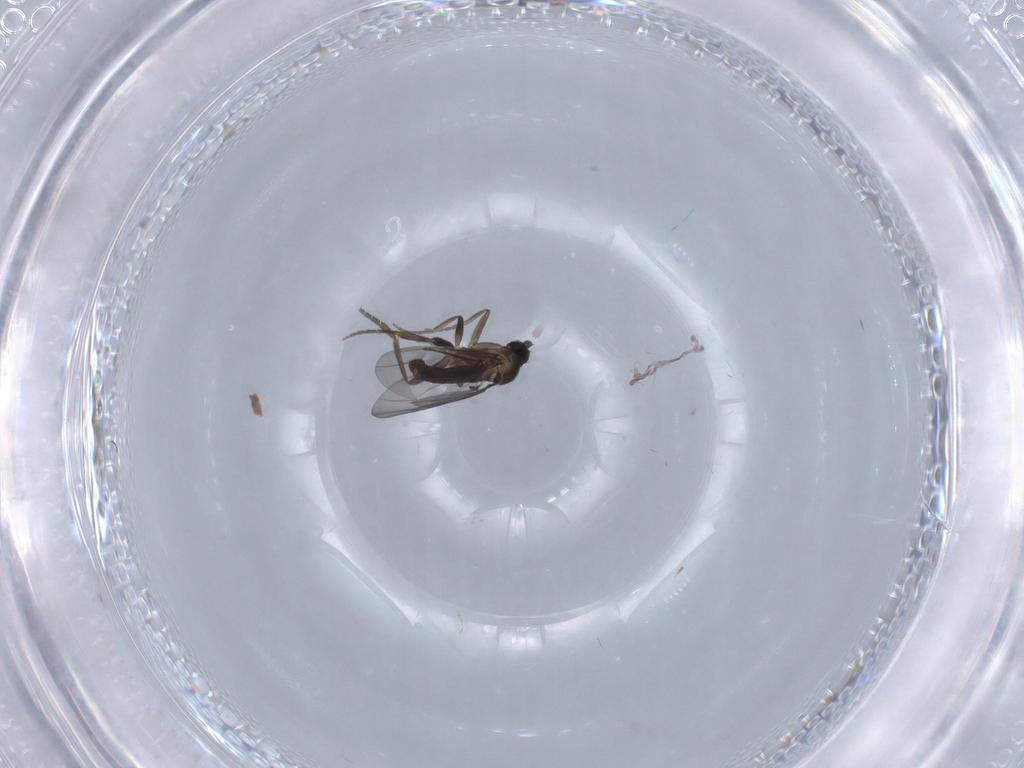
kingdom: Animalia
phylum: Arthropoda
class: Insecta
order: Diptera
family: Phoridae
